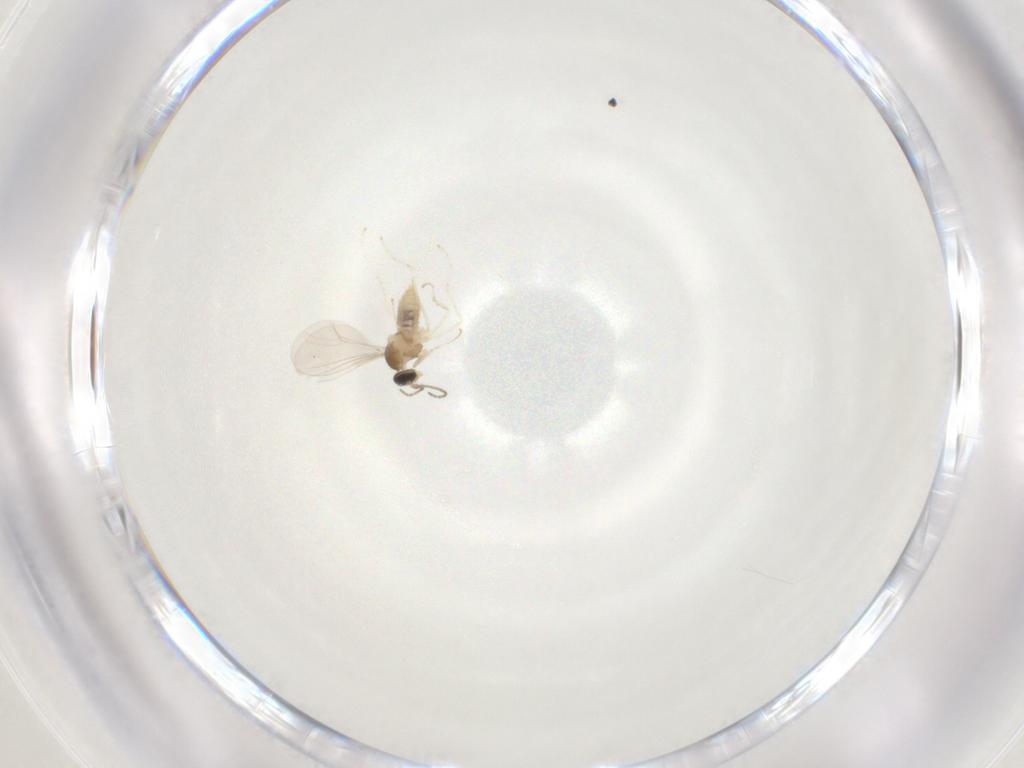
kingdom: Animalia
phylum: Arthropoda
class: Insecta
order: Diptera
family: Cecidomyiidae
